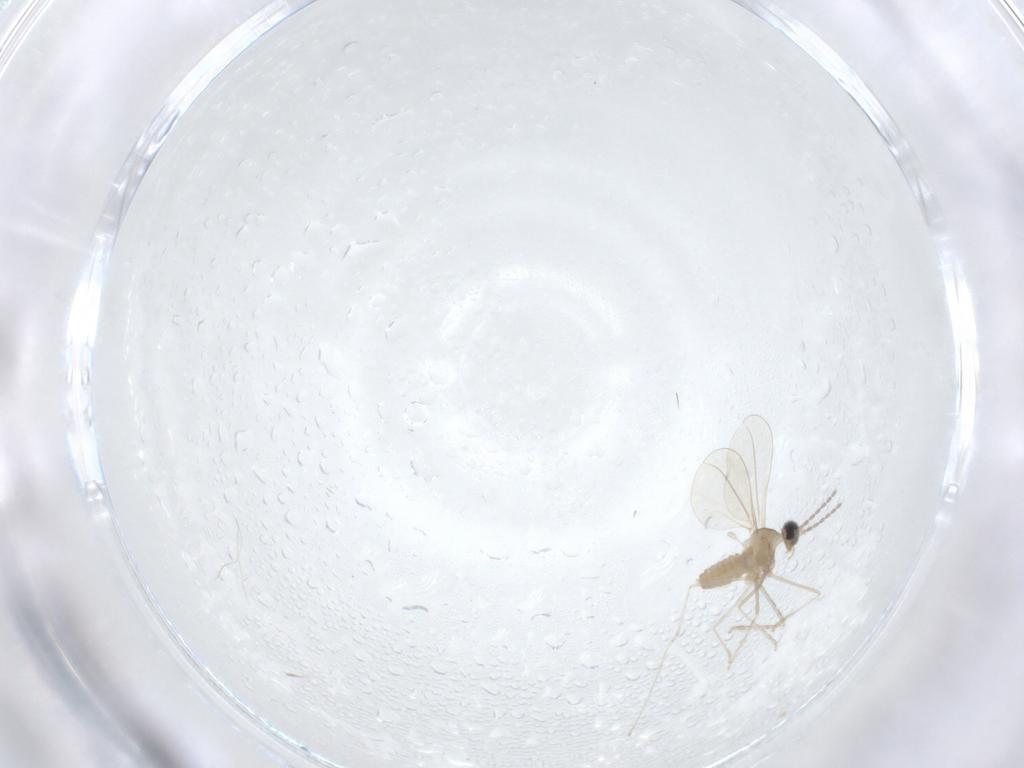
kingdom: Animalia
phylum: Arthropoda
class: Insecta
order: Diptera
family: Cecidomyiidae
